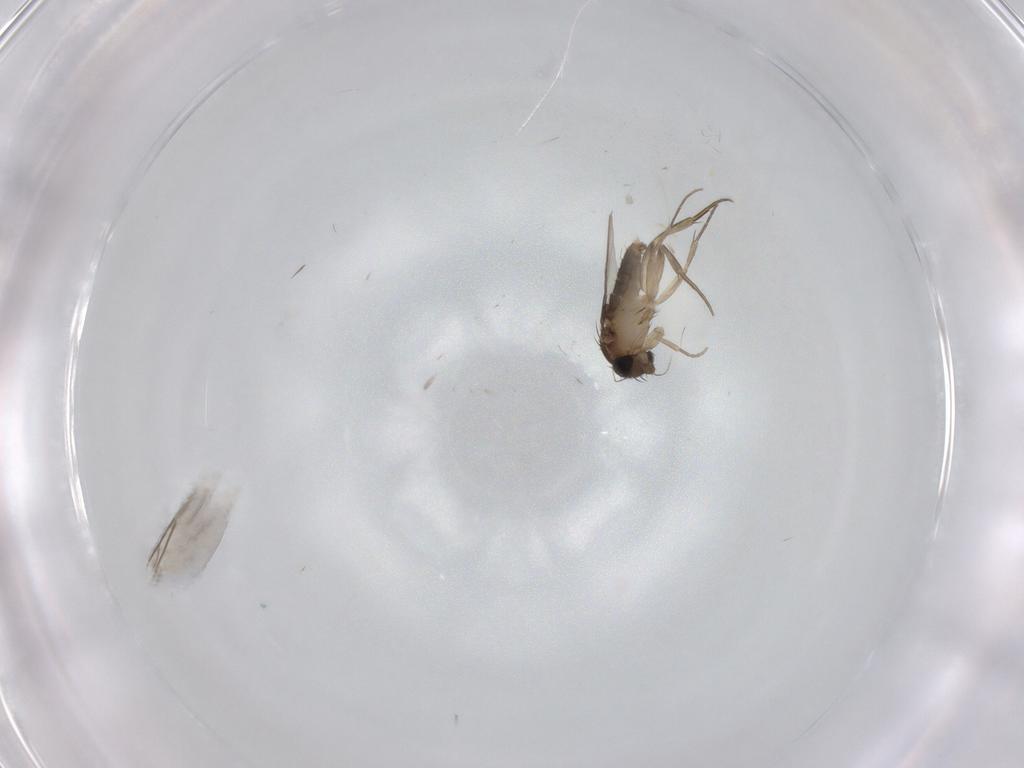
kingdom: Animalia
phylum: Arthropoda
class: Insecta
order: Diptera
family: Phoridae
